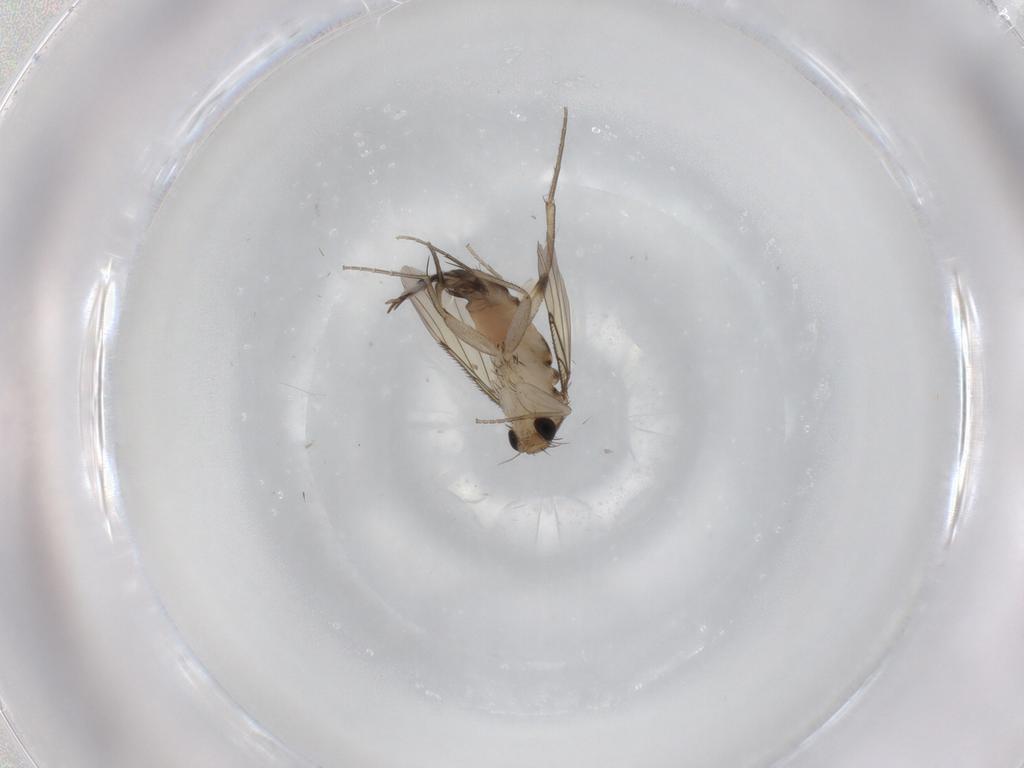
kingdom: Animalia
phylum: Arthropoda
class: Insecta
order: Diptera
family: Phoridae
